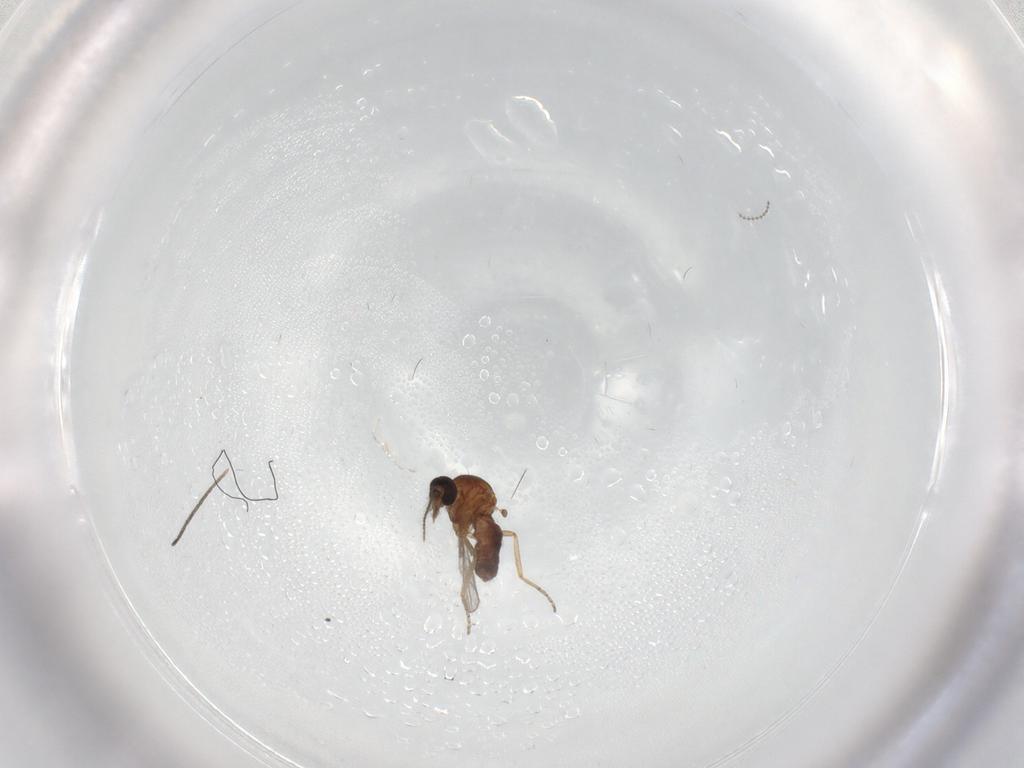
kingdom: Animalia
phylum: Arthropoda
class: Insecta
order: Diptera
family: Ceratopogonidae
